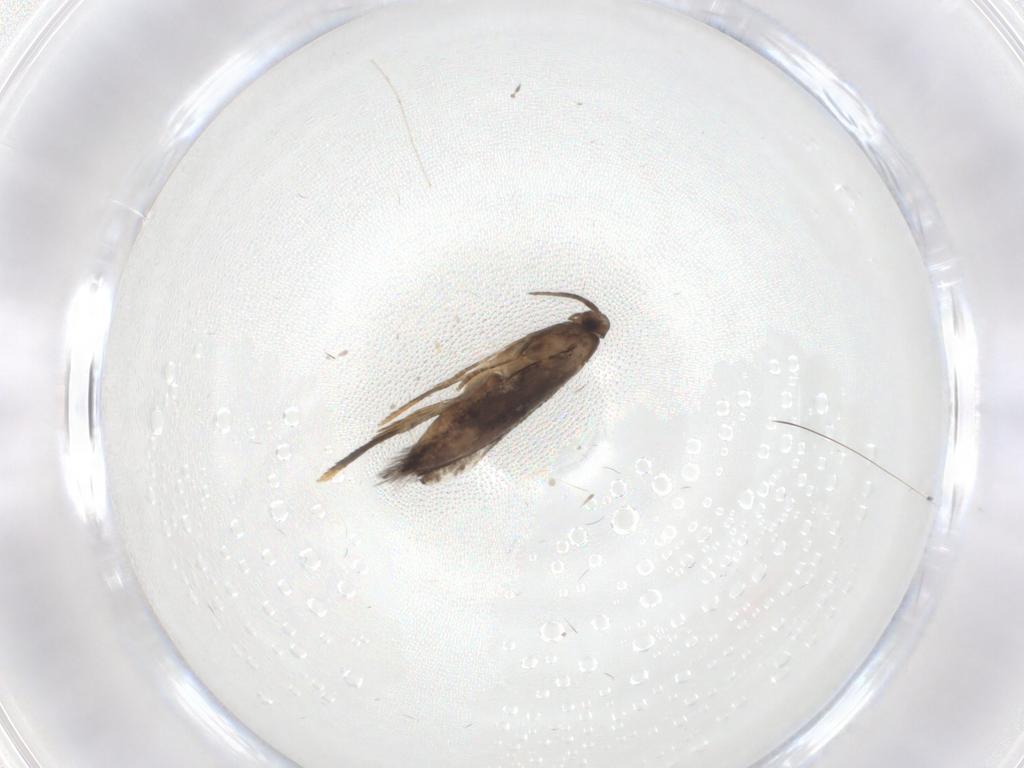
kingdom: Animalia
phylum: Arthropoda
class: Insecta
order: Lepidoptera
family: Heliozelidae
